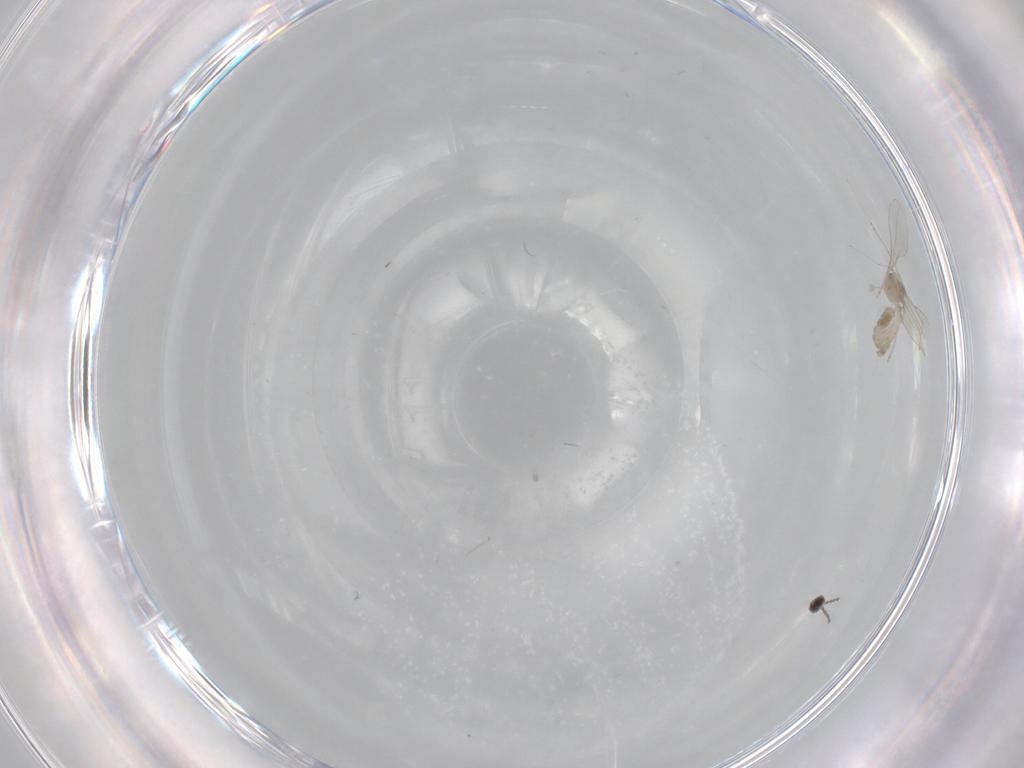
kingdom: Animalia
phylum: Arthropoda
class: Insecta
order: Diptera
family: Cecidomyiidae
